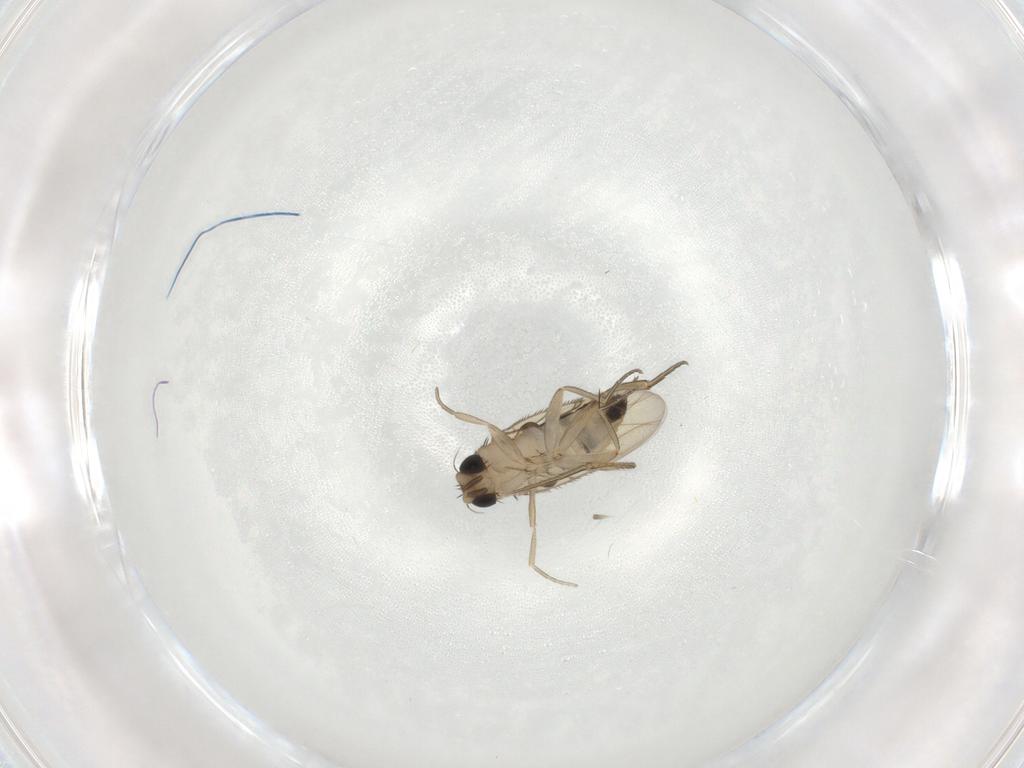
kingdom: Animalia
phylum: Arthropoda
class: Insecta
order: Diptera
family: Phoridae
